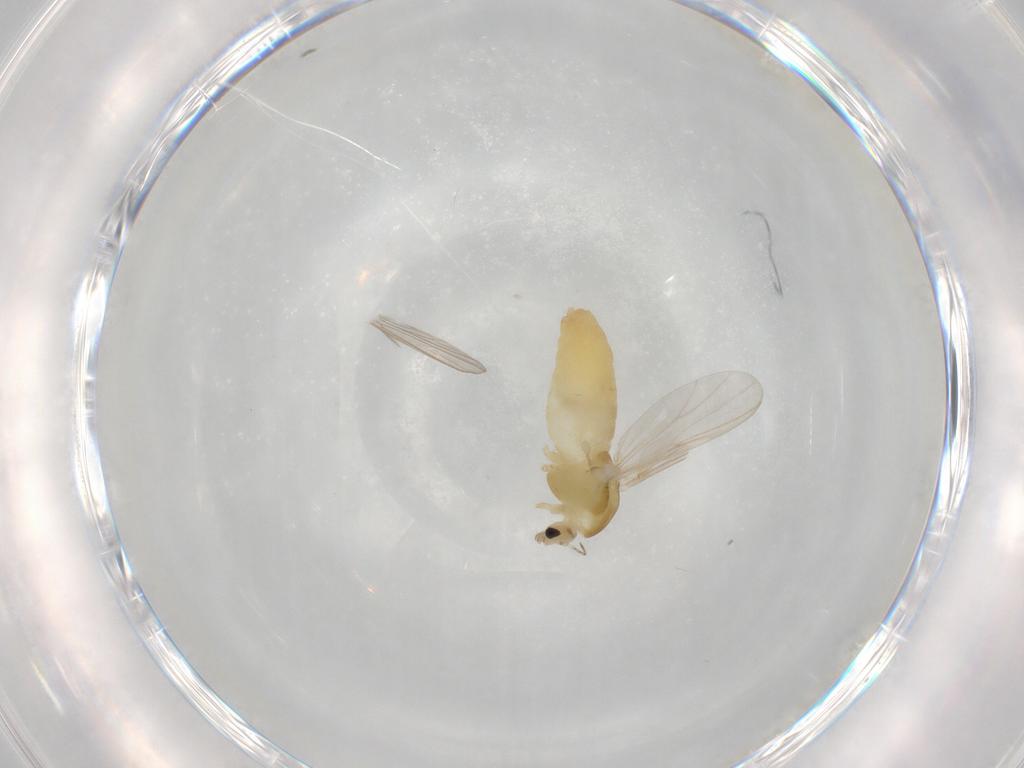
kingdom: Animalia
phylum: Arthropoda
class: Insecta
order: Diptera
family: Chironomidae
